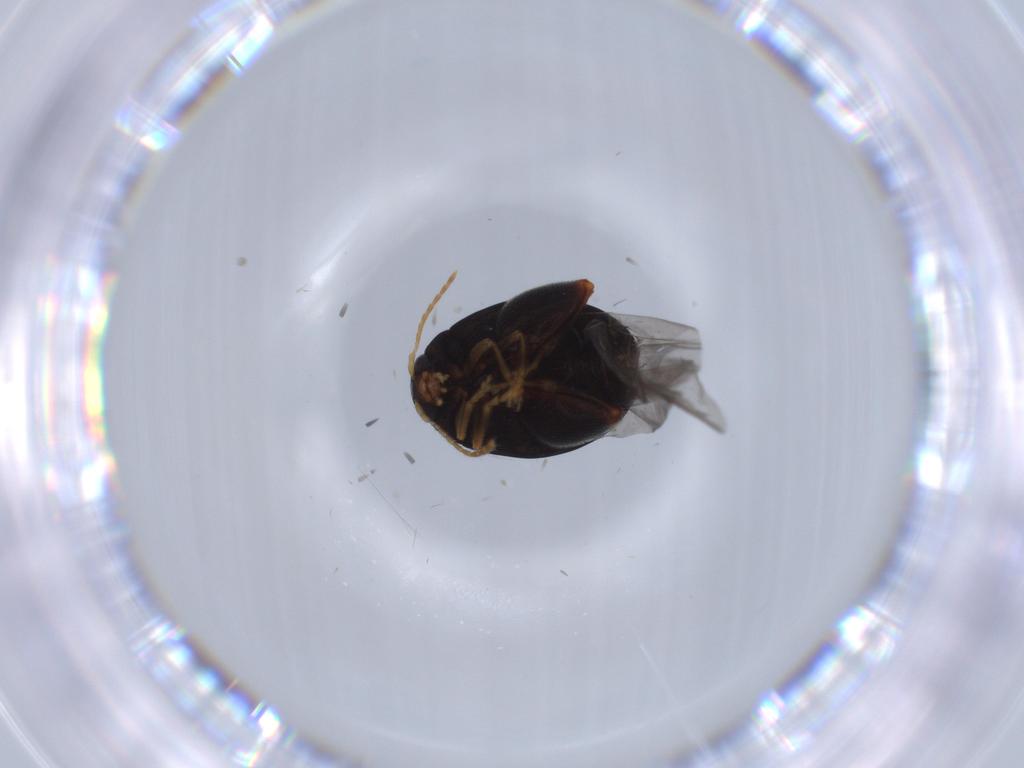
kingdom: Animalia
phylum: Arthropoda
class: Insecta
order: Coleoptera
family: Chrysomelidae
